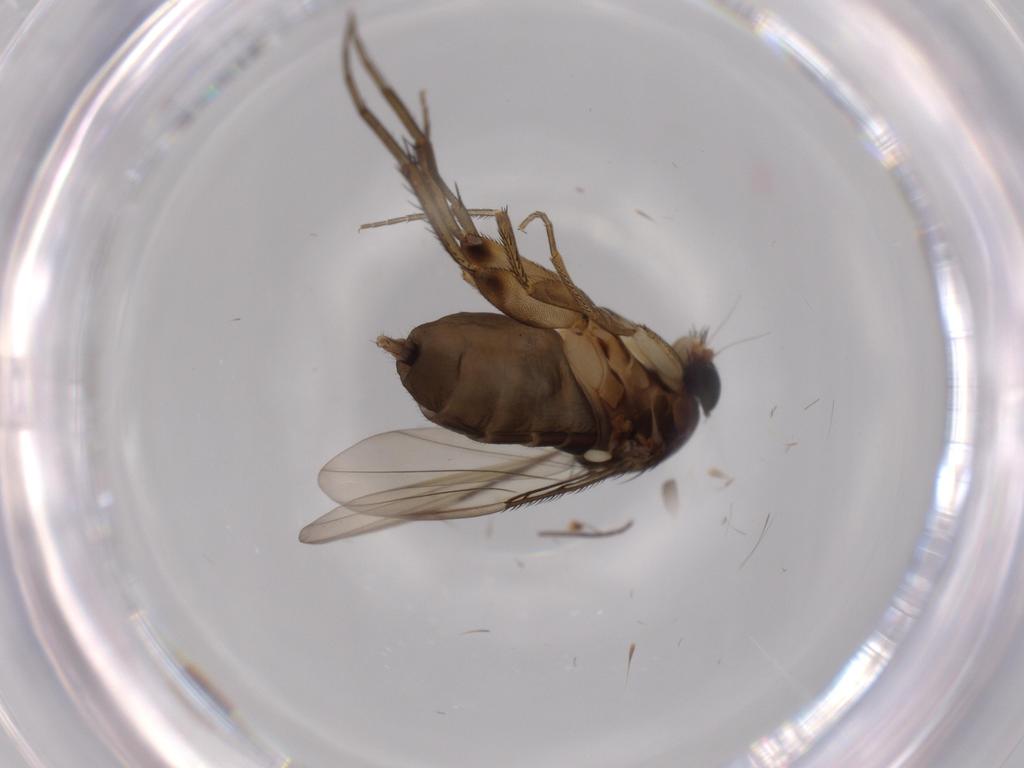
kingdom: Animalia
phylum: Arthropoda
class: Insecta
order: Diptera
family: Phoridae
